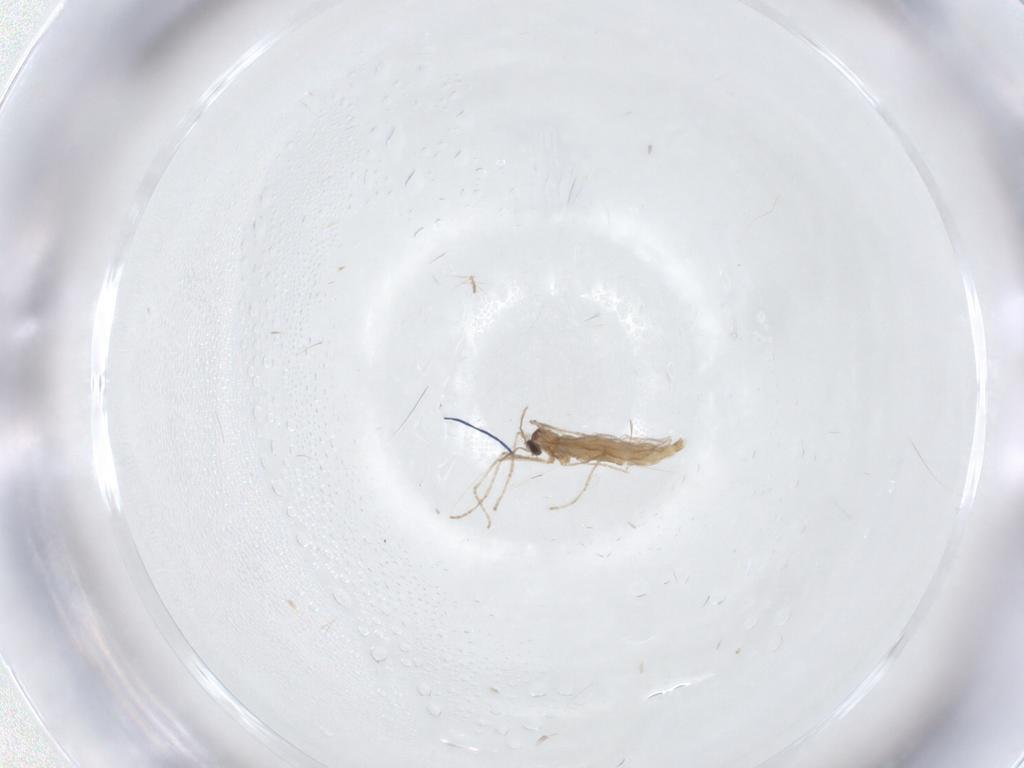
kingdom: Animalia
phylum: Arthropoda
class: Insecta
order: Diptera
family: Cecidomyiidae
